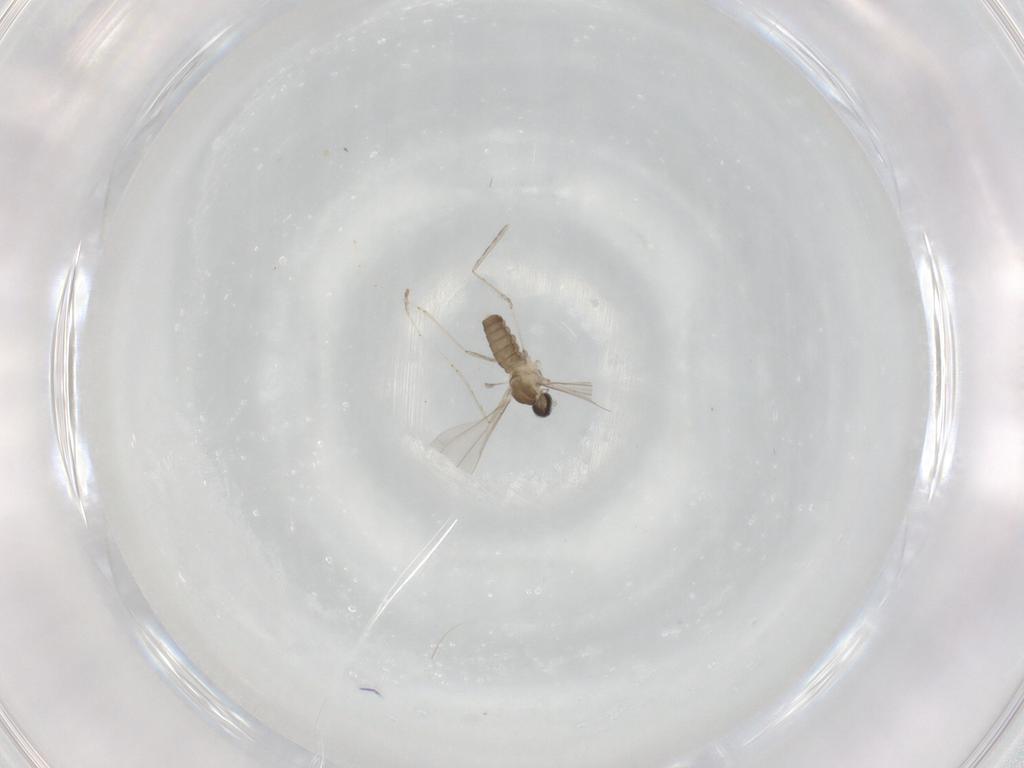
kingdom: Animalia
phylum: Arthropoda
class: Insecta
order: Diptera
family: Cecidomyiidae
